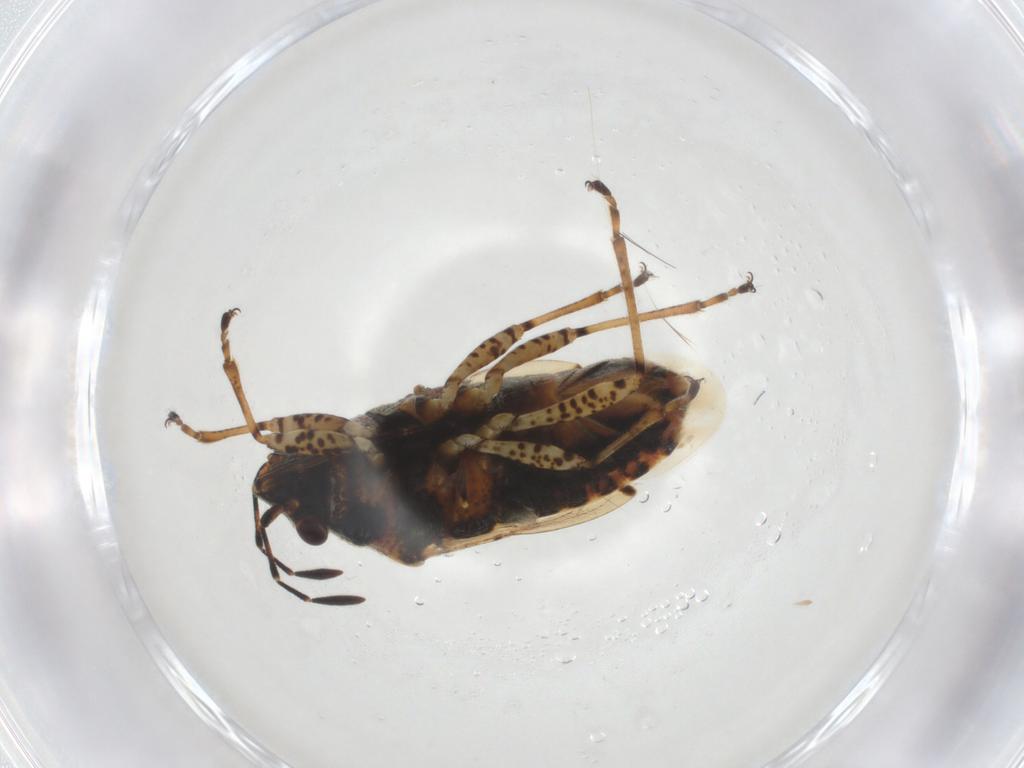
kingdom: Animalia
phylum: Arthropoda
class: Insecta
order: Hemiptera
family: Lygaeidae
